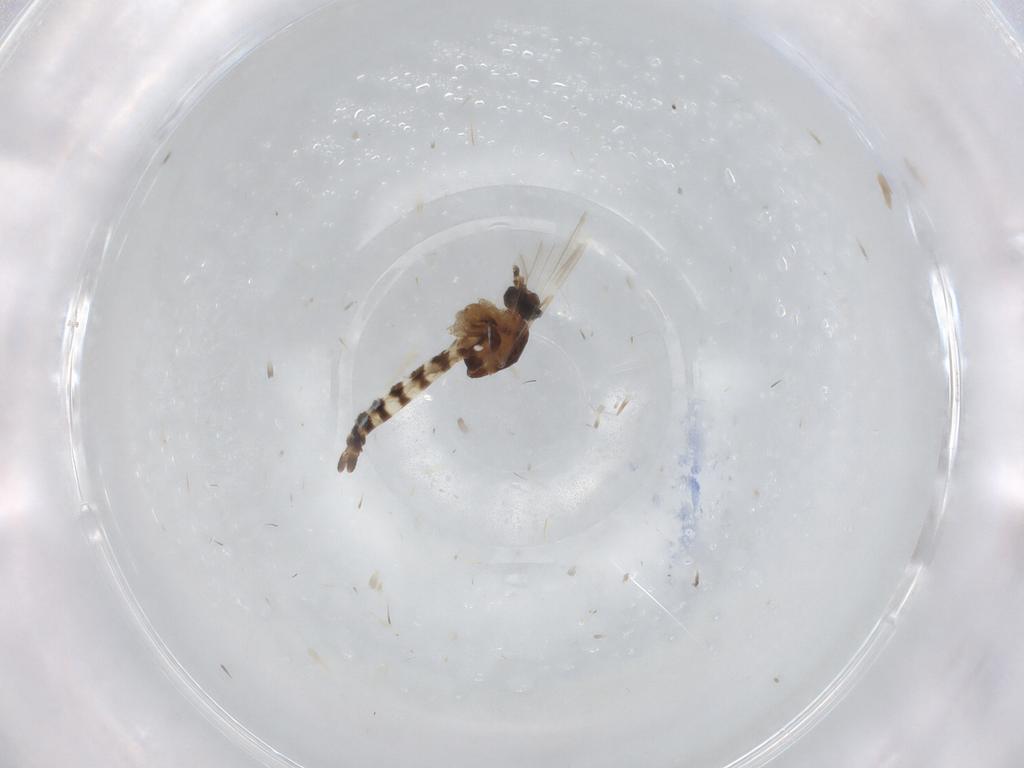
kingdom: Animalia
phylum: Arthropoda
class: Insecta
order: Diptera
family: Ceratopogonidae
